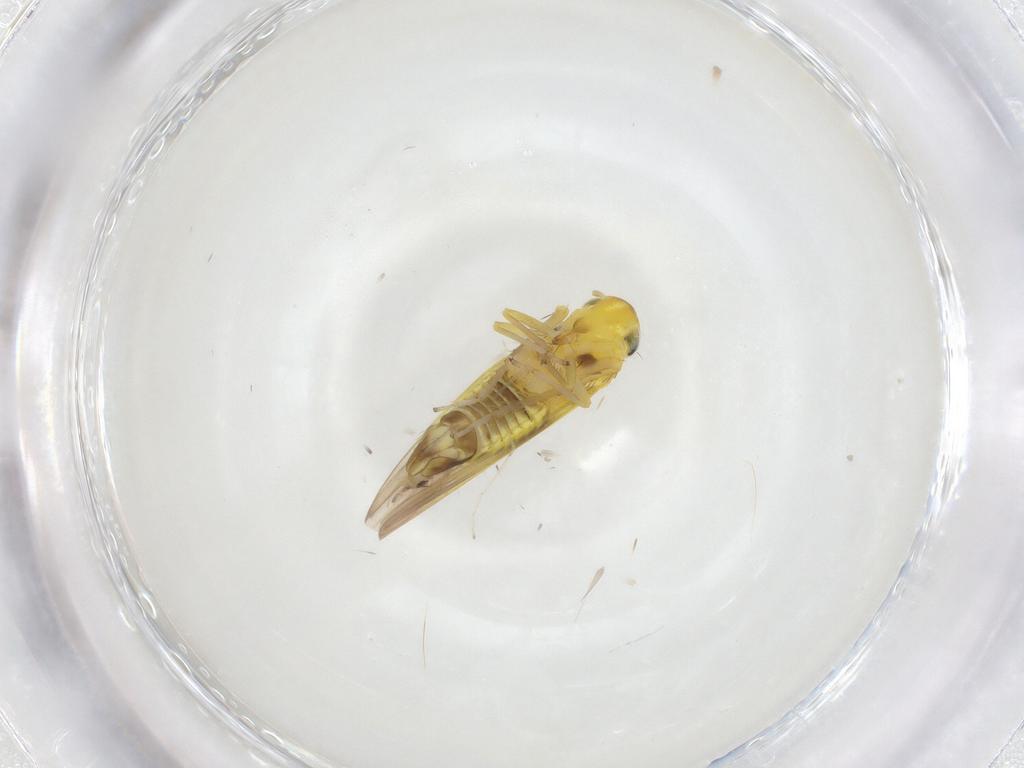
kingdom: Animalia
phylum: Arthropoda
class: Insecta
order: Hemiptera
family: Cicadellidae
